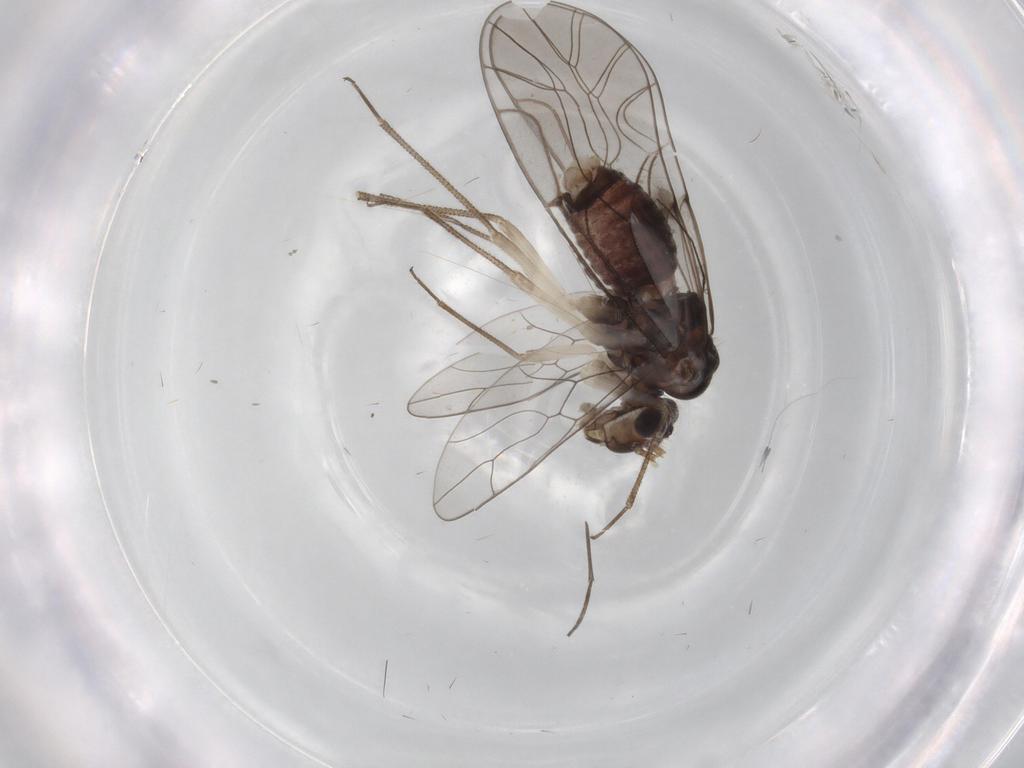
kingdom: Animalia
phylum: Arthropoda
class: Insecta
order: Psocodea
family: Lachesillidae
